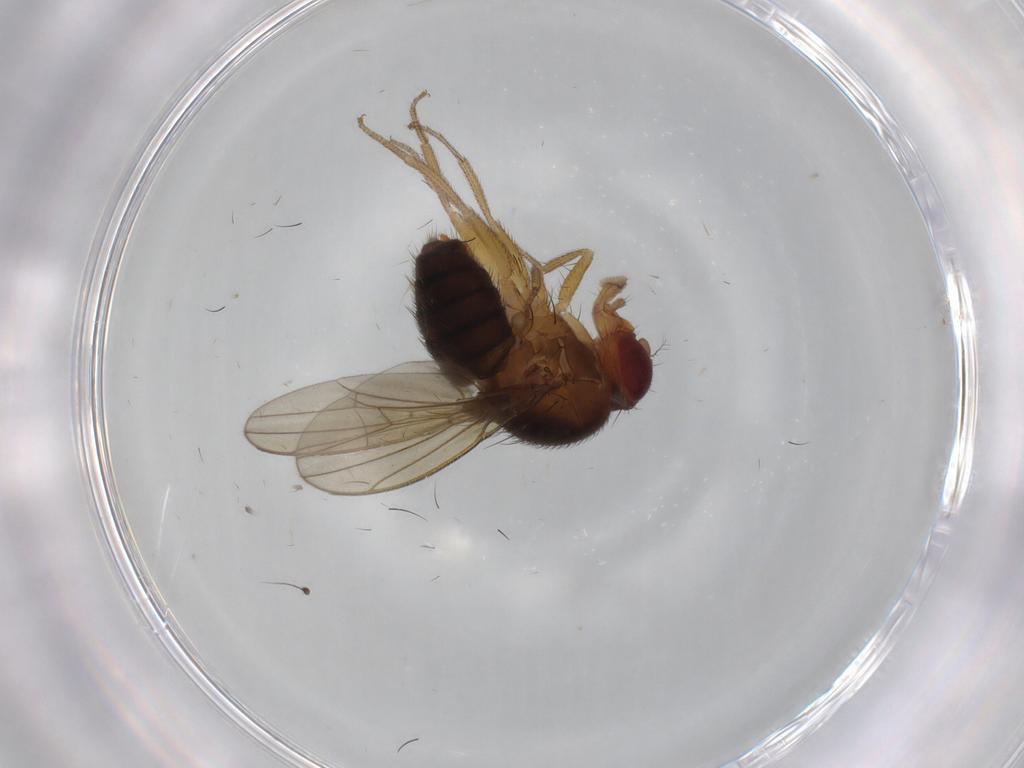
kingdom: Animalia
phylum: Arthropoda
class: Insecta
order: Diptera
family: Drosophilidae
